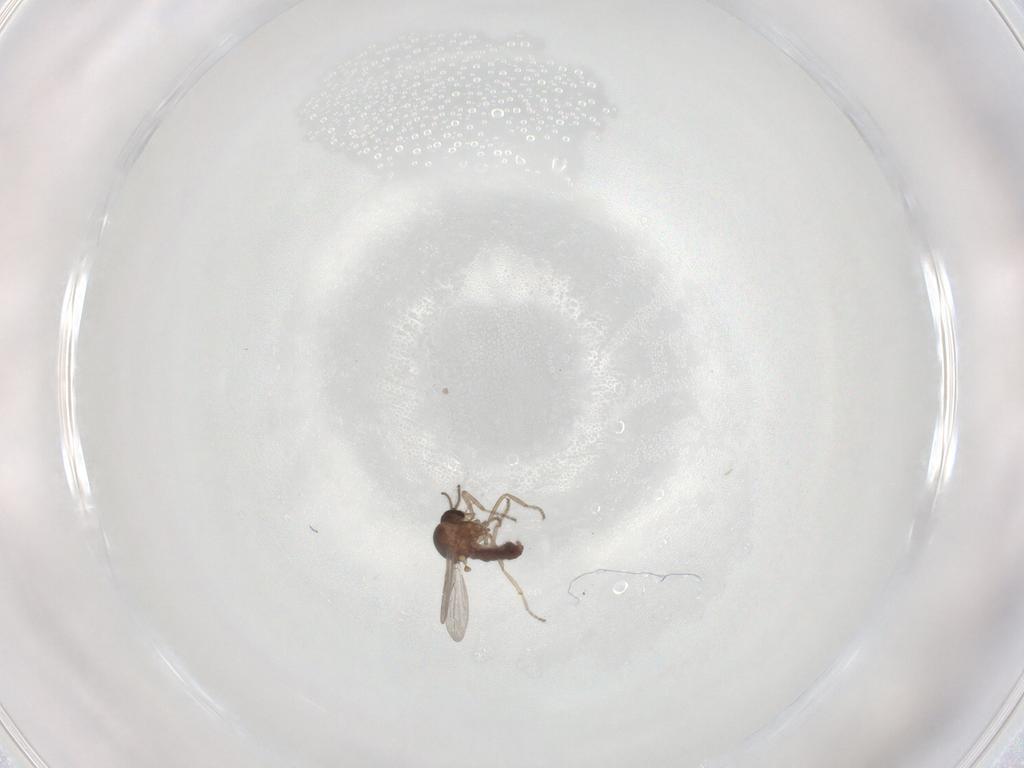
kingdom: Animalia
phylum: Arthropoda
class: Insecta
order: Diptera
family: Ceratopogonidae
